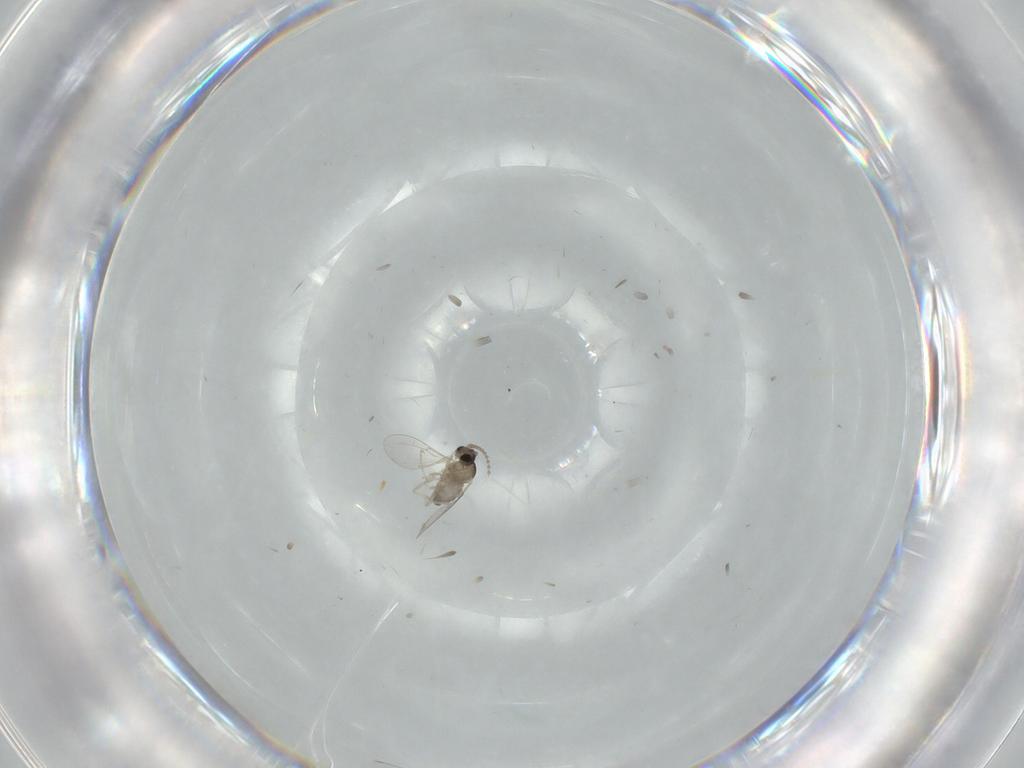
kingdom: Animalia
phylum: Arthropoda
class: Insecta
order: Diptera
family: Cecidomyiidae
